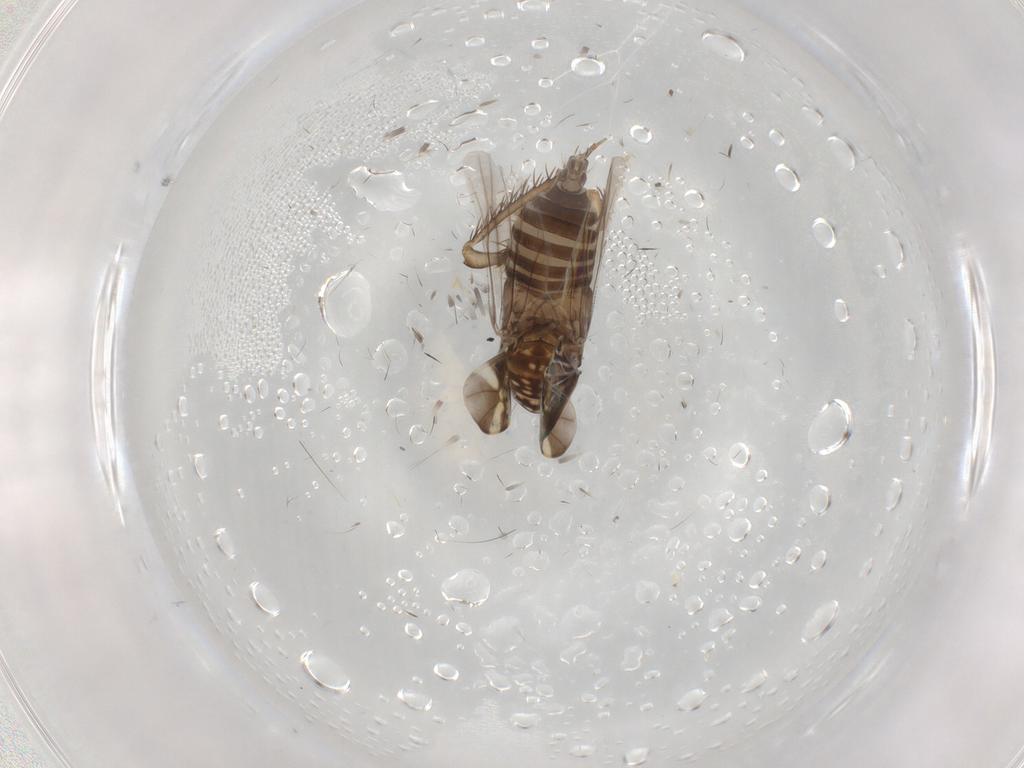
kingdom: Animalia
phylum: Arthropoda
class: Insecta
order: Hemiptera
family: Cicadellidae
